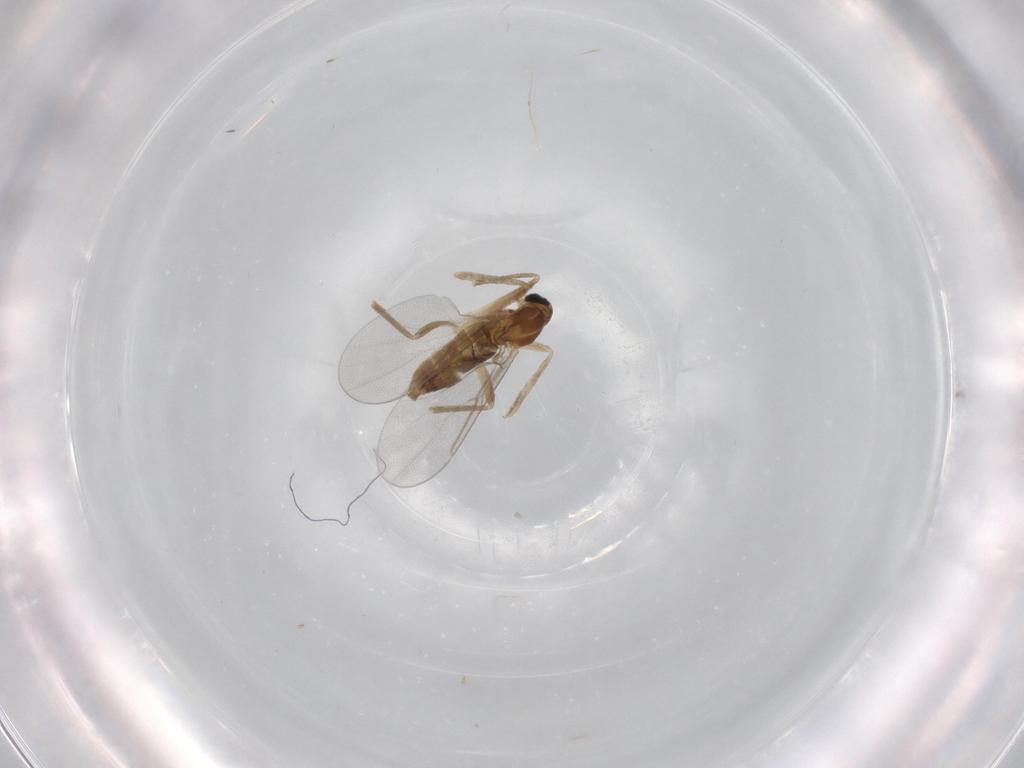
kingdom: Animalia
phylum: Arthropoda
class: Insecta
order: Diptera
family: Cecidomyiidae
